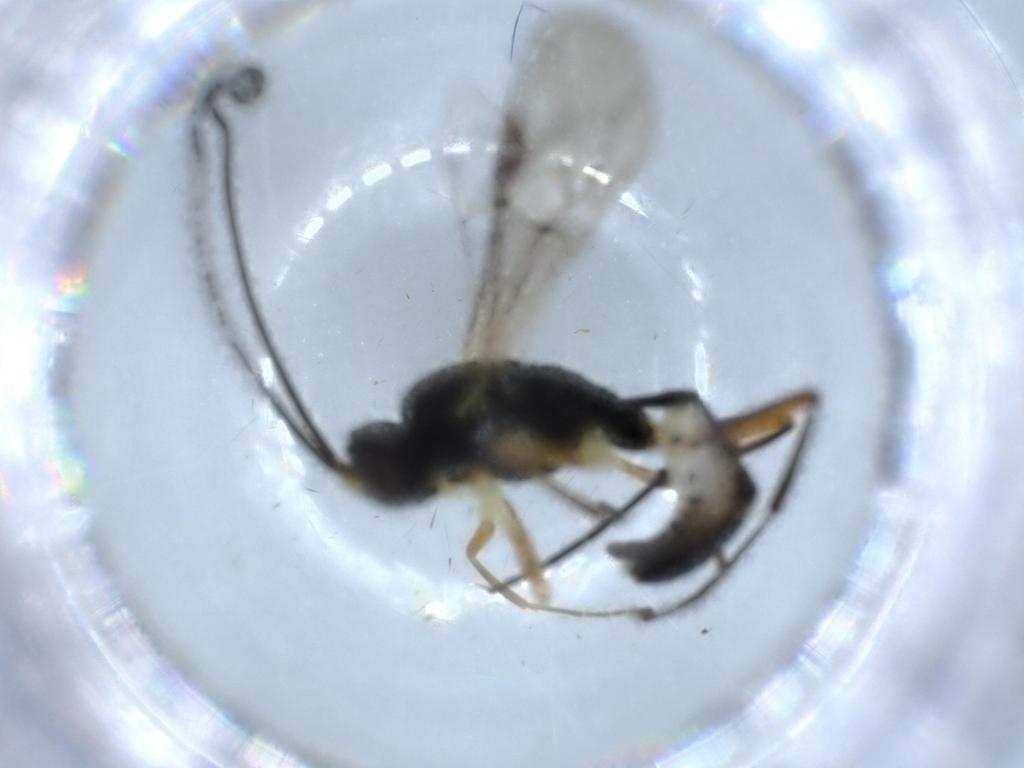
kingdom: Animalia
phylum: Arthropoda
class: Insecta
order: Hymenoptera
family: Ichneumonidae
